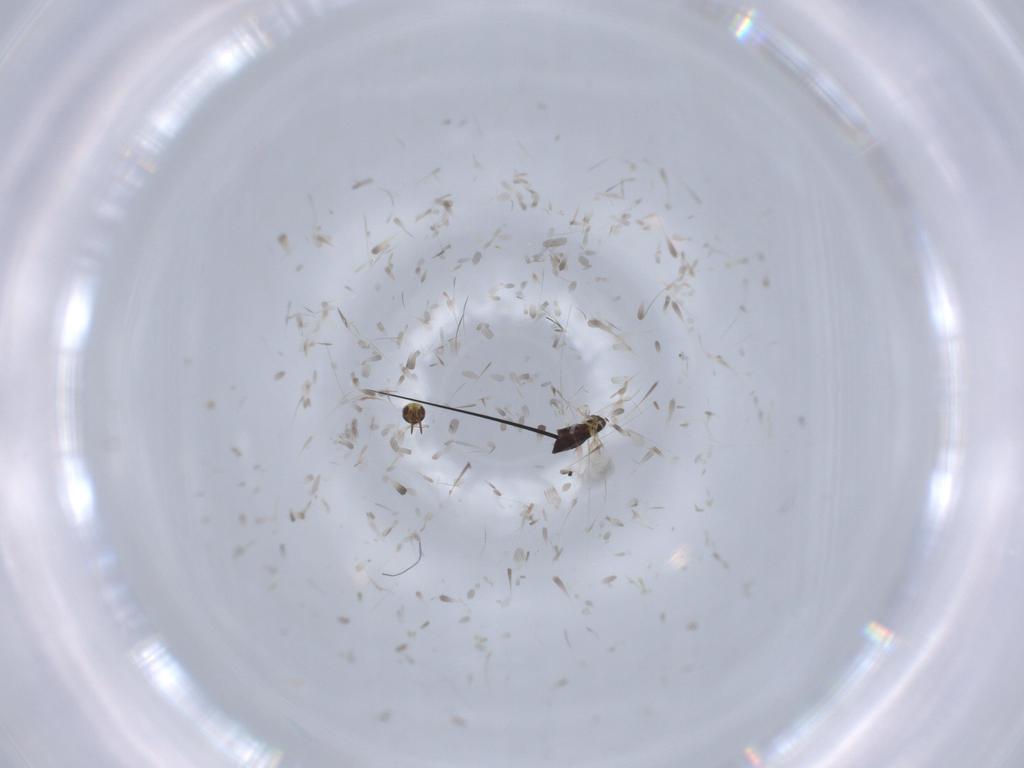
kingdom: Animalia
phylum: Arthropoda
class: Insecta
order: Hymenoptera
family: Signiphoridae
